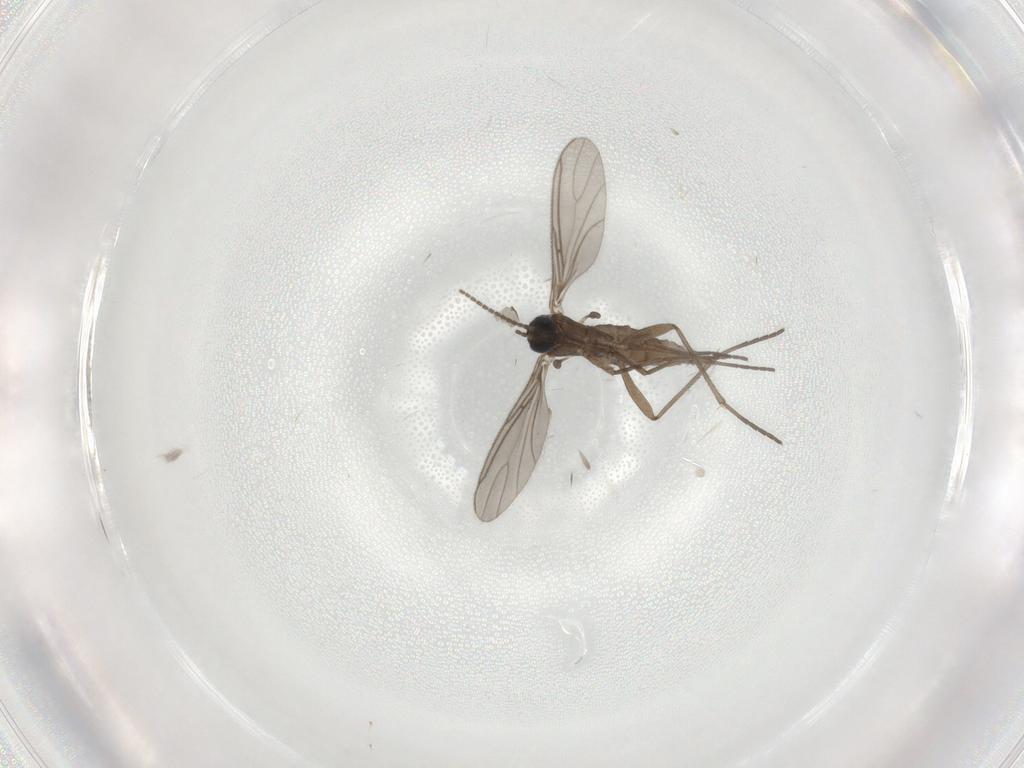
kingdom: Animalia
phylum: Arthropoda
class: Insecta
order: Diptera
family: Sciaridae
